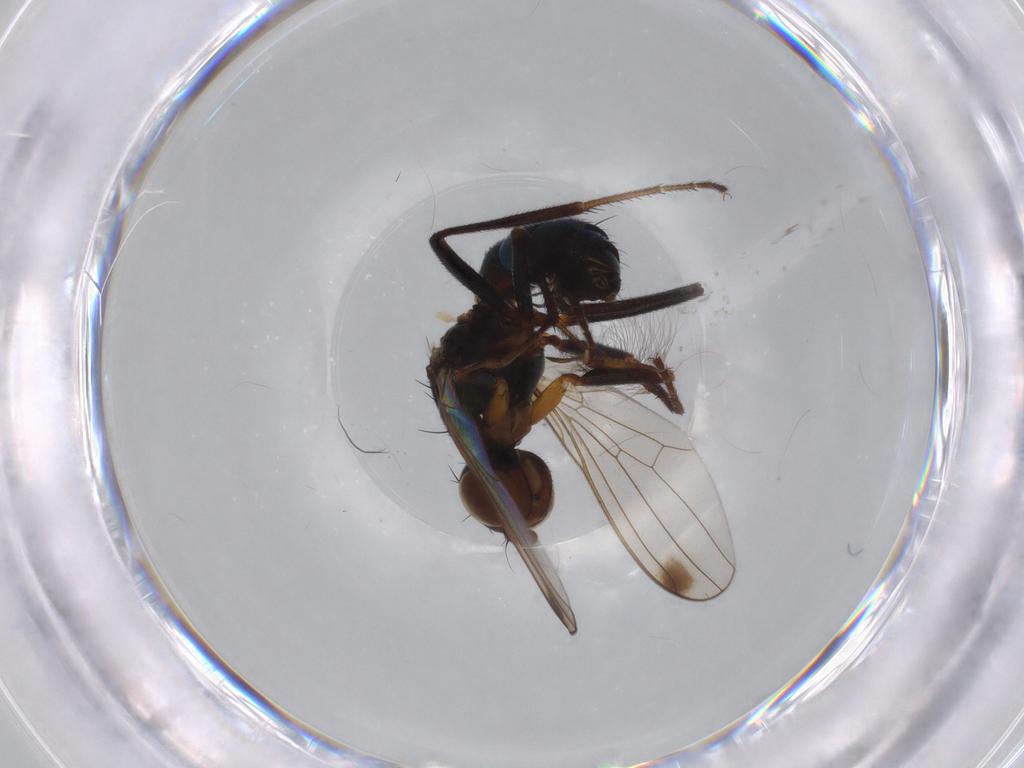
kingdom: Animalia
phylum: Arthropoda
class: Insecta
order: Diptera
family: Sepsidae
